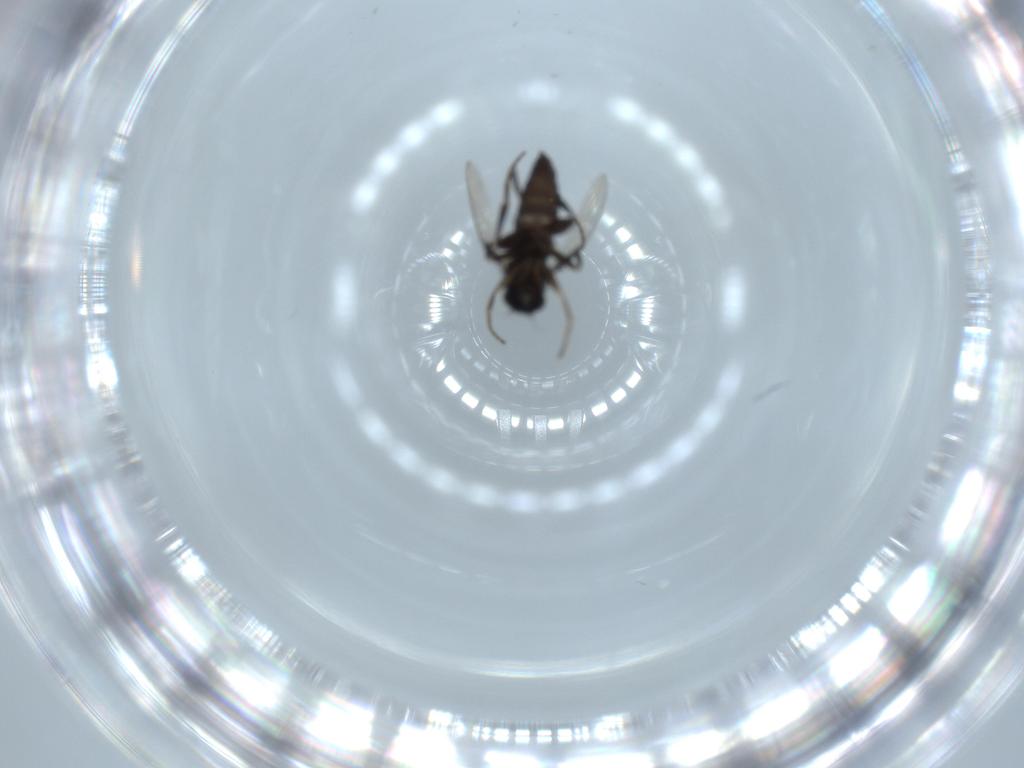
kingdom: Animalia
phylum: Arthropoda
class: Insecta
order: Diptera
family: Phoridae
